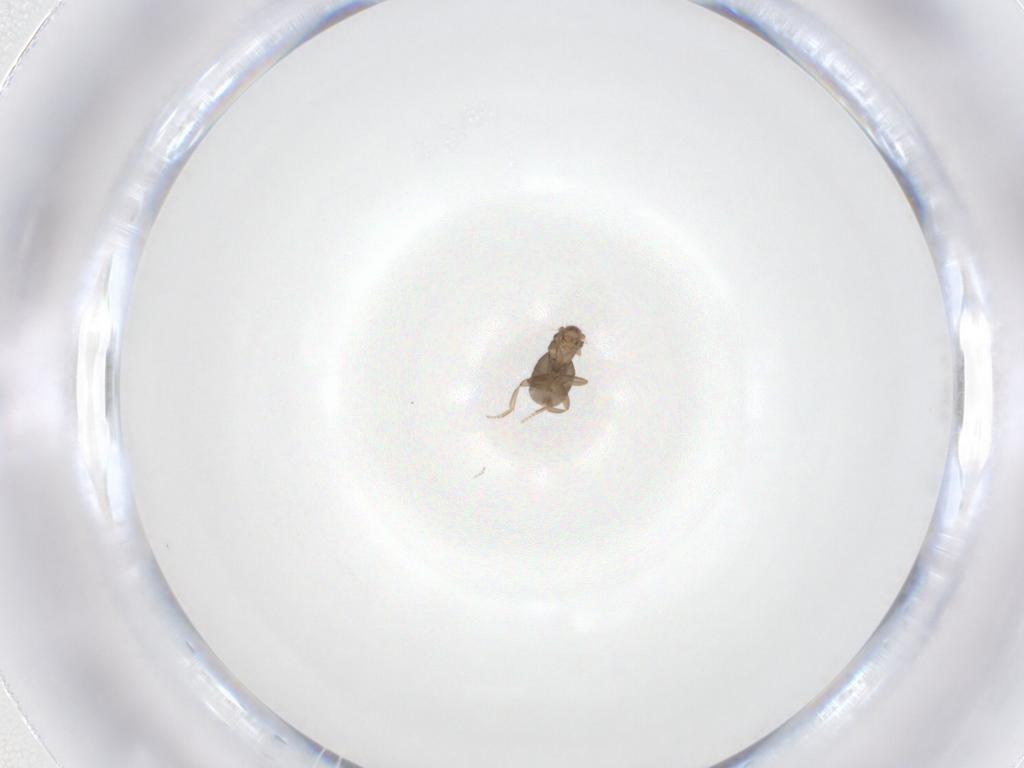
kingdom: Animalia
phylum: Arthropoda
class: Insecta
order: Diptera
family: Cecidomyiidae
